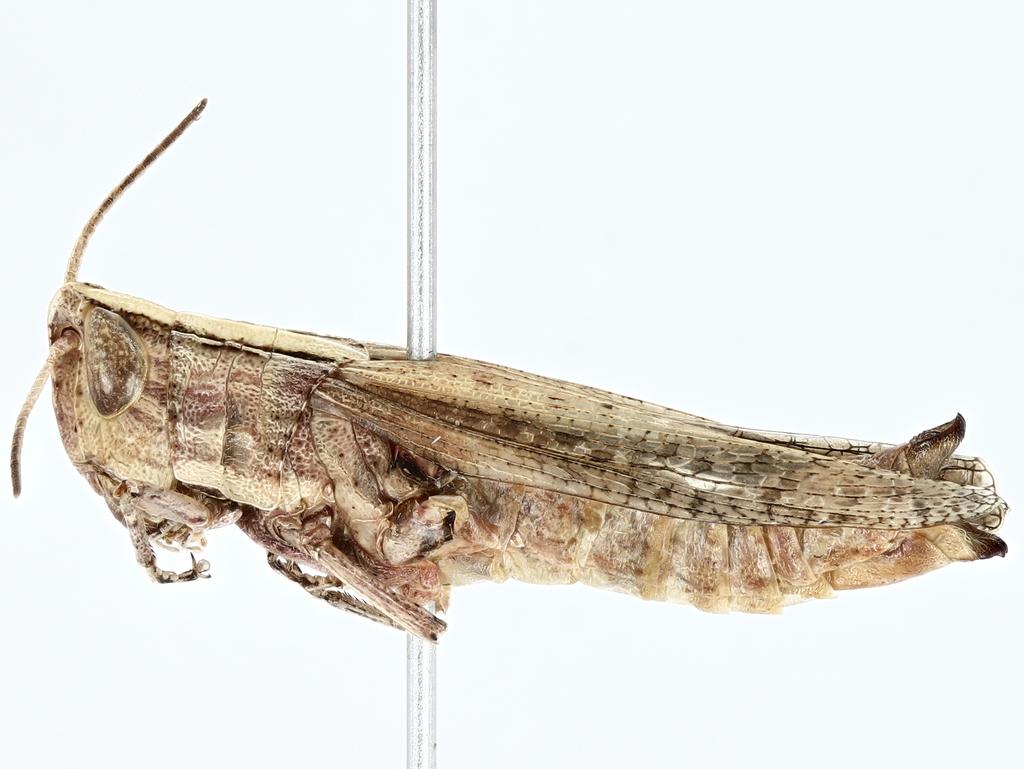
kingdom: Animalia
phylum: Arthropoda
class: Insecta
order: Orthoptera
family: Acrididae
